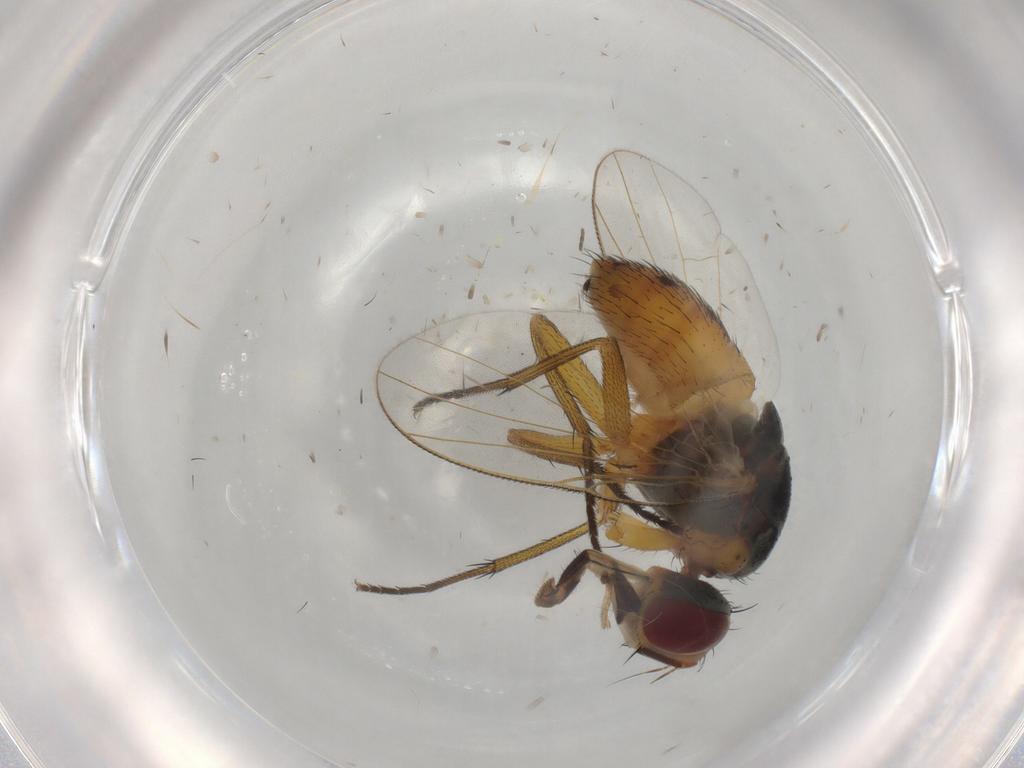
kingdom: Animalia
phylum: Arthropoda
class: Insecta
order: Diptera
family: Muscidae
